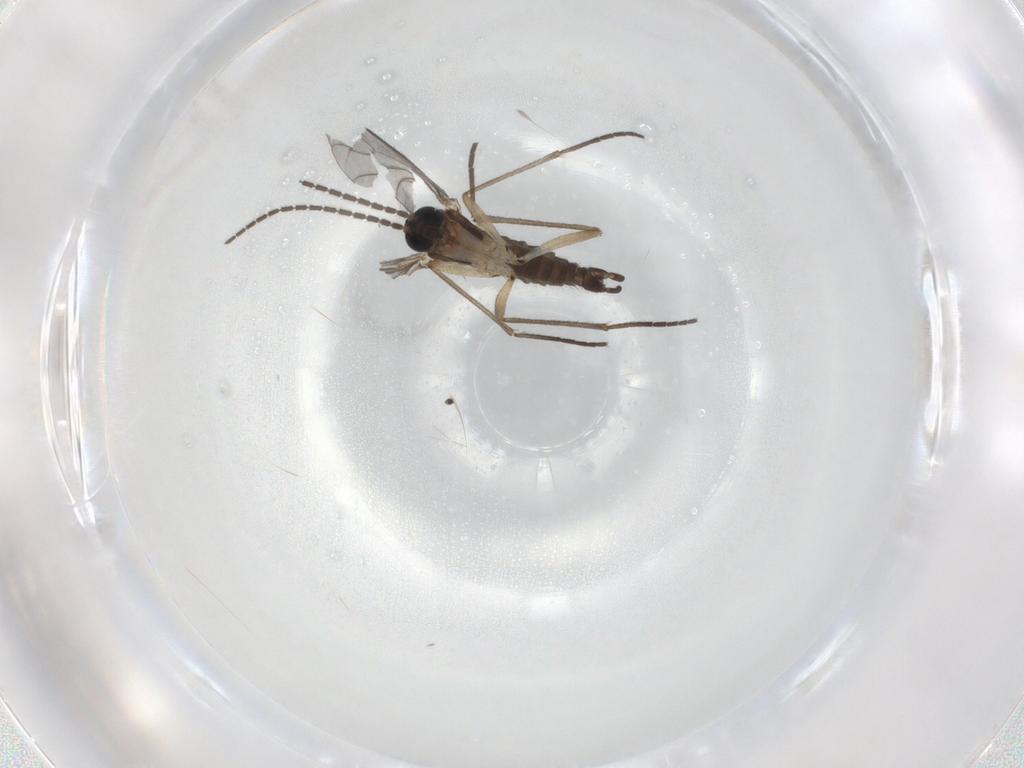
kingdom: Animalia
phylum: Arthropoda
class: Insecta
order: Diptera
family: Sciaridae
